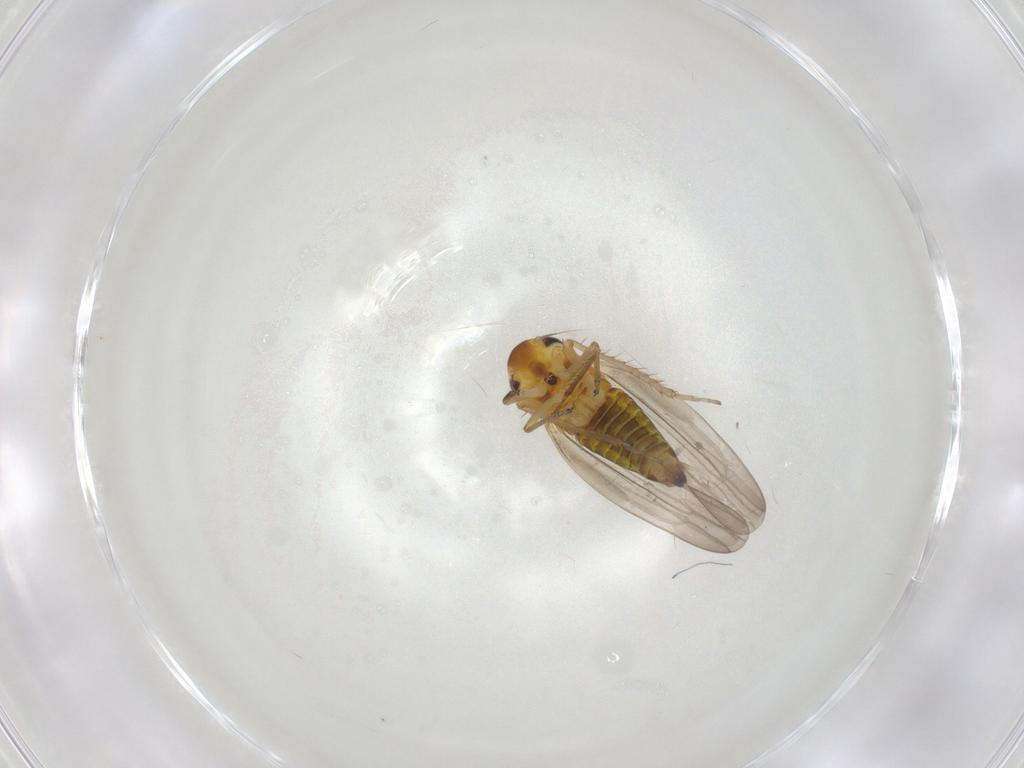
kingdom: Animalia
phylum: Arthropoda
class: Insecta
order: Hemiptera
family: Cicadellidae
